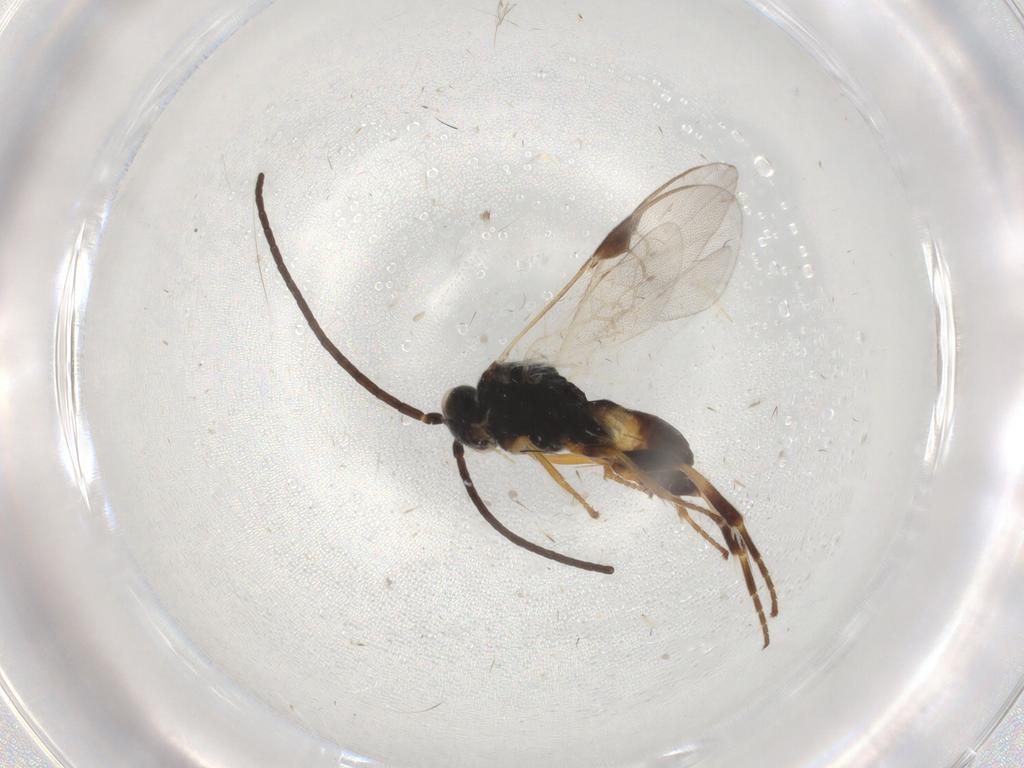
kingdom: Animalia
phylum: Arthropoda
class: Insecta
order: Hymenoptera
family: Braconidae
